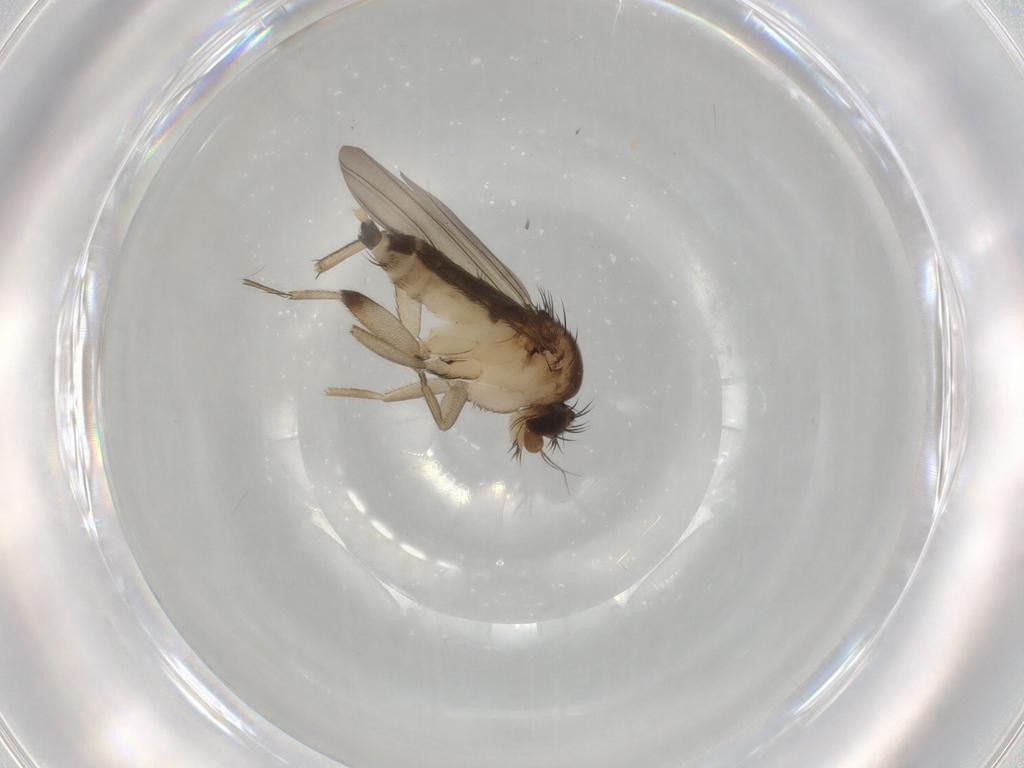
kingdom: Animalia
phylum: Arthropoda
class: Insecta
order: Diptera
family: Phoridae
